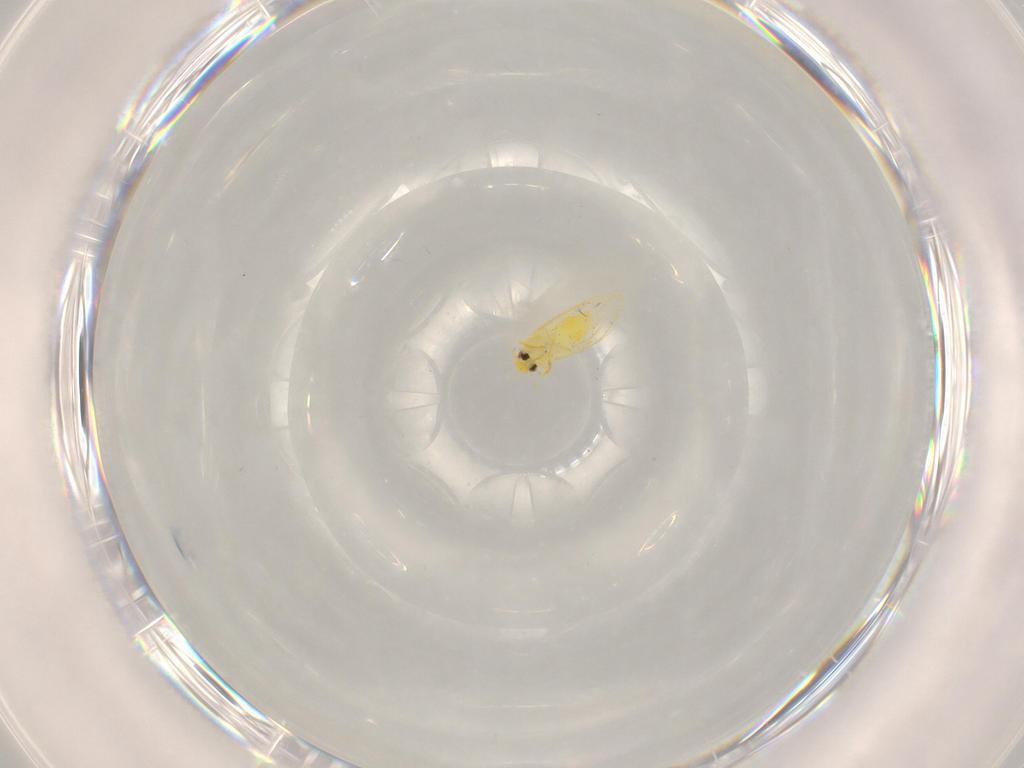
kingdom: Animalia
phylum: Arthropoda
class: Insecta
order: Hemiptera
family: Aleyrodidae
